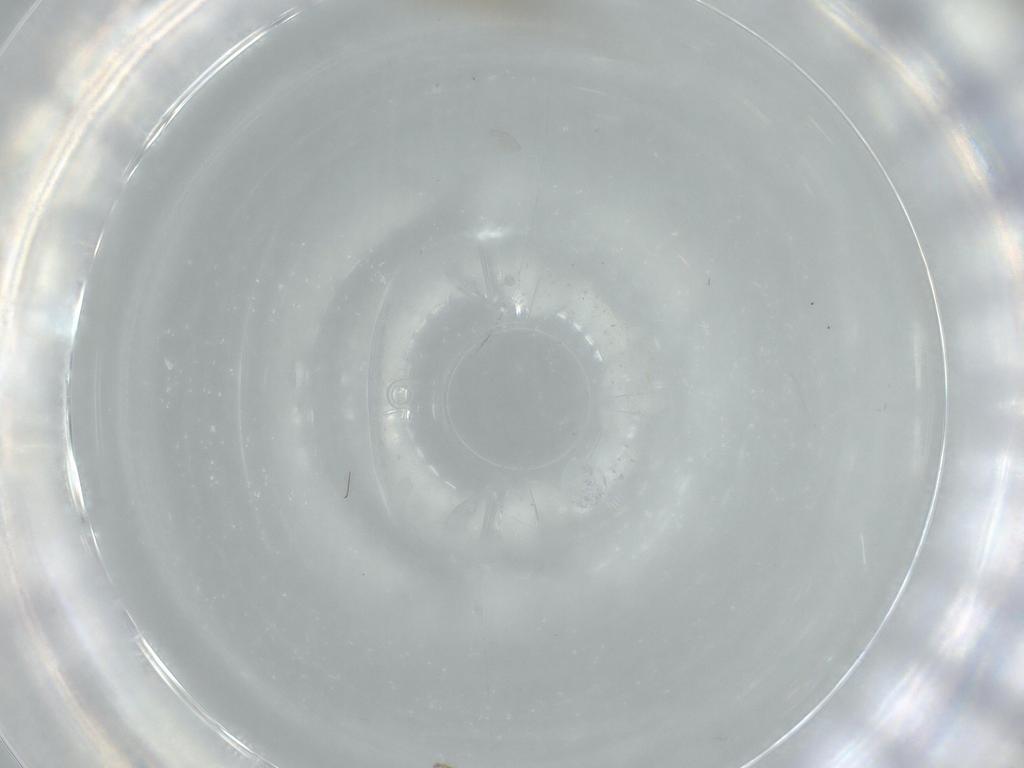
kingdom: Animalia
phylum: Arthropoda
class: Insecta
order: Diptera
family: Cecidomyiidae
